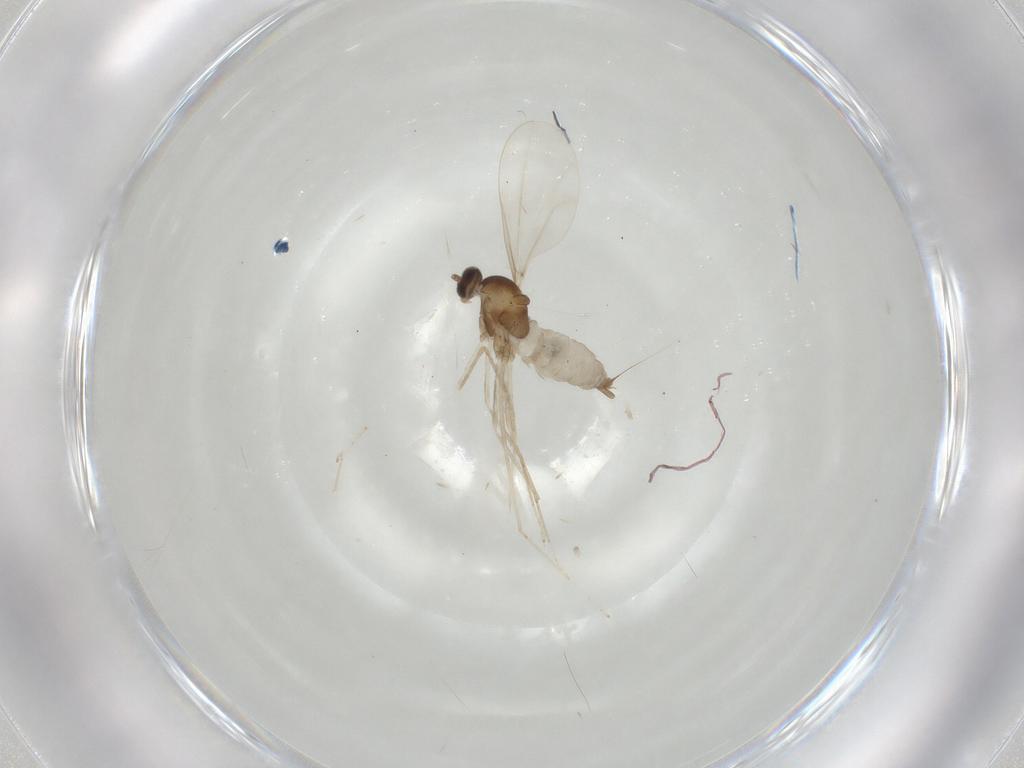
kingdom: Animalia
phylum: Arthropoda
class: Insecta
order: Diptera
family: Cecidomyiidae
